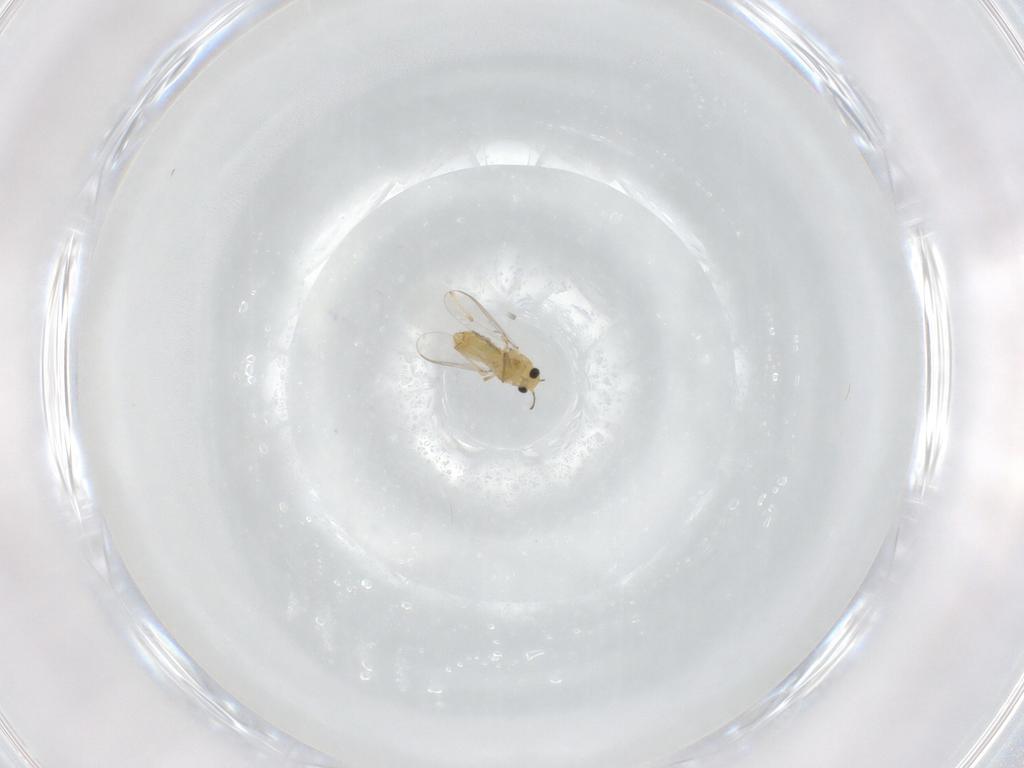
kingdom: Animalia
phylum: Arthropoda
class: Insecta
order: Diptera
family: Chironomidae
